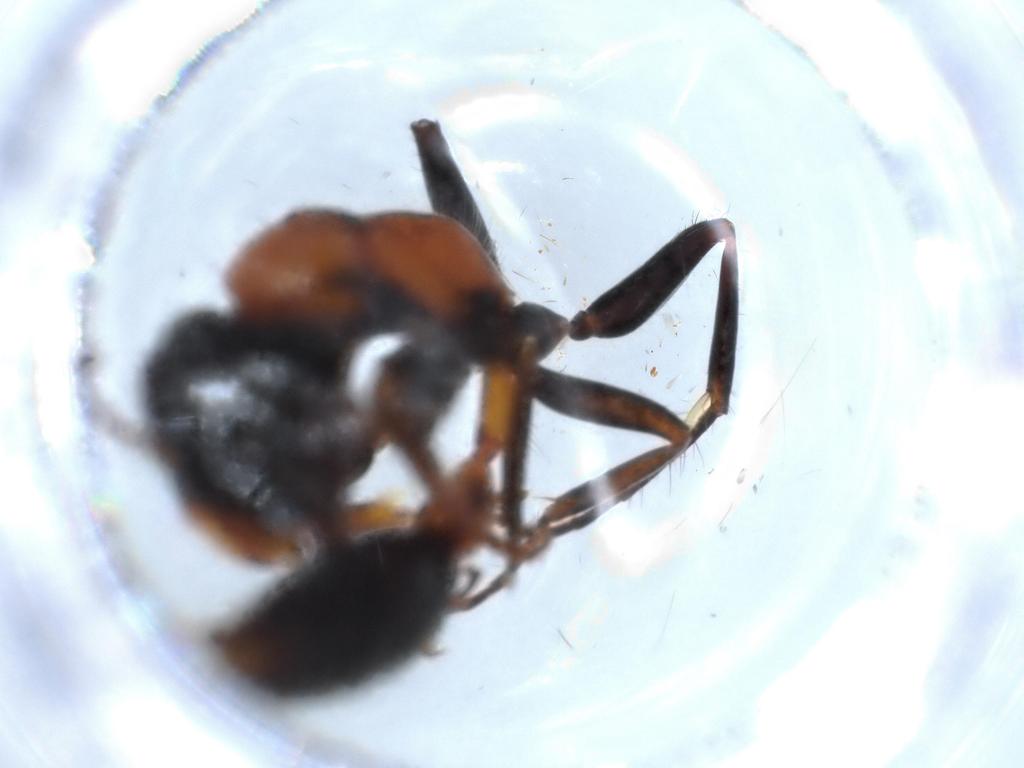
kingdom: Animalia
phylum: Arthropoda
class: Insecta
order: Hymenoptera
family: Formicidae
